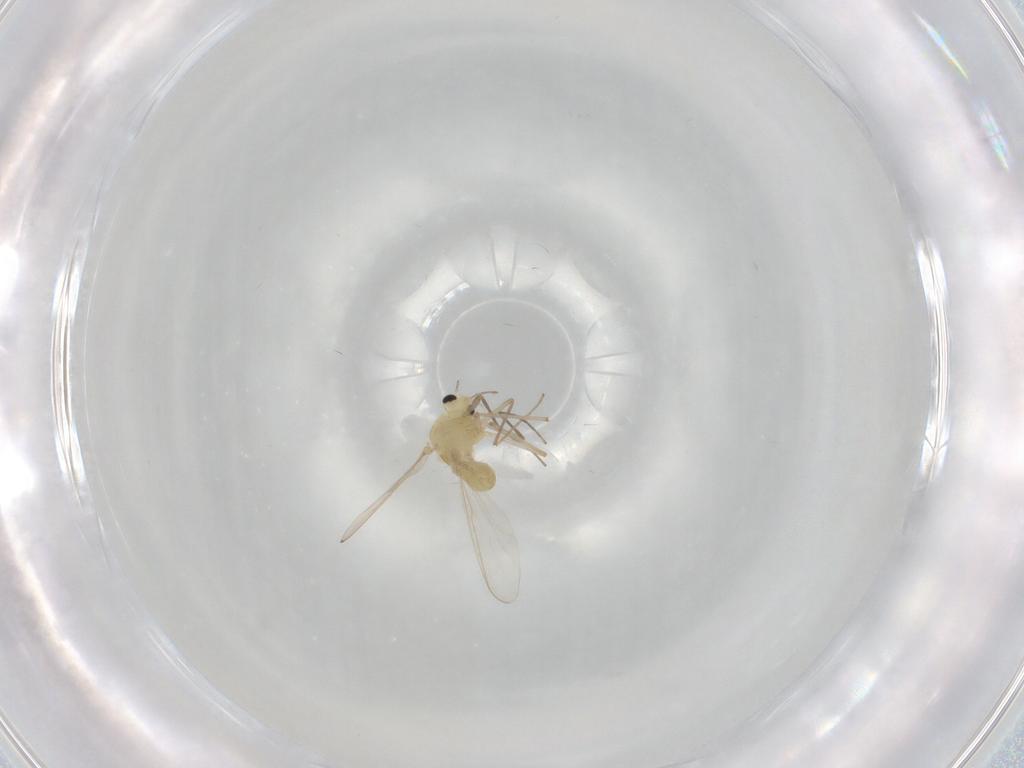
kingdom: Animalia
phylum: Arthropoda
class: Insecta
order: Diptera
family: Chironomidae
